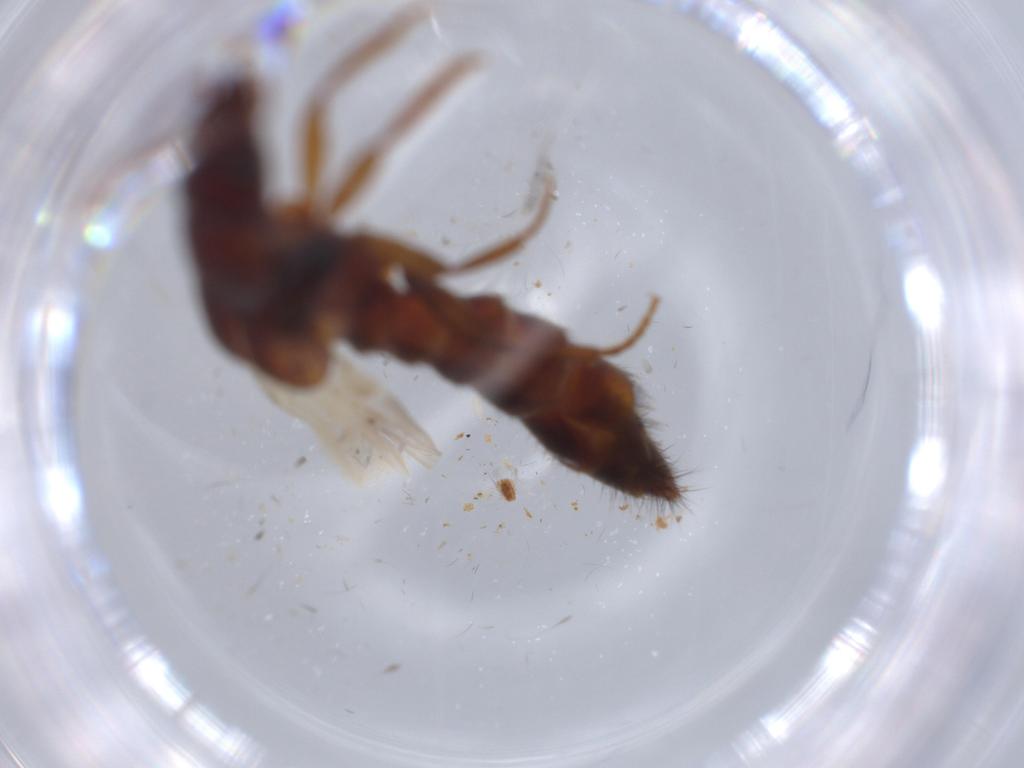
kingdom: Animalia
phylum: Arthropoda
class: Insecta
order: Coleoptera
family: Staphylinidae
